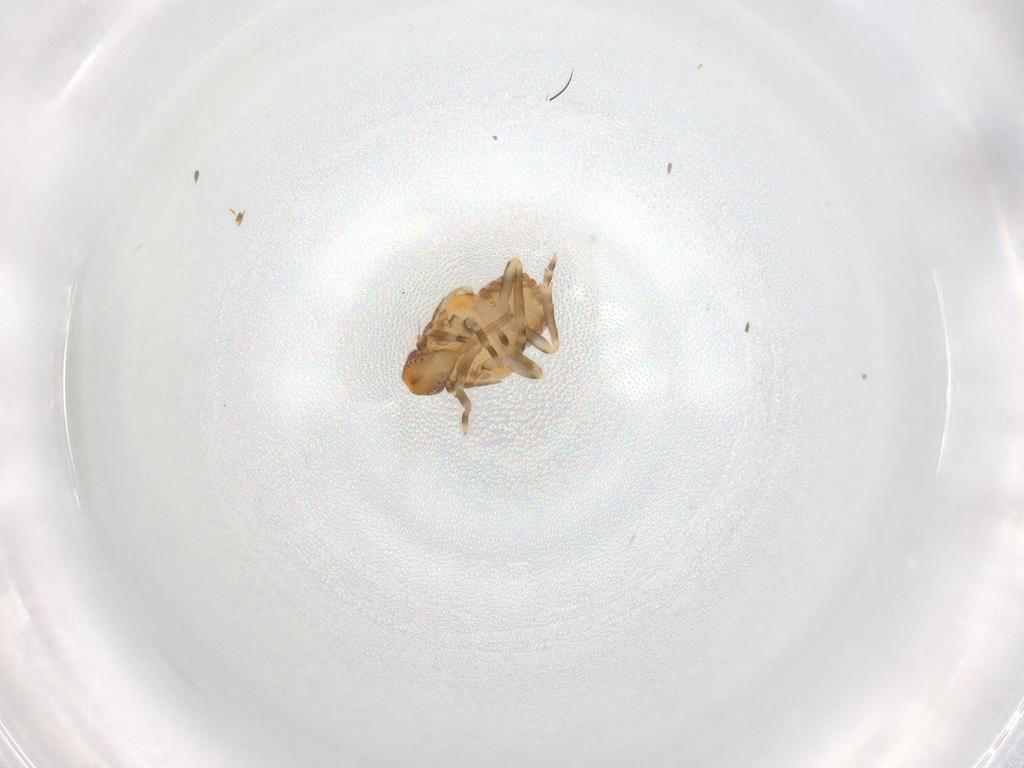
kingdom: Animalia
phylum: Arthropoda
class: Insecta
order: Hemiptera
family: Flatidae
